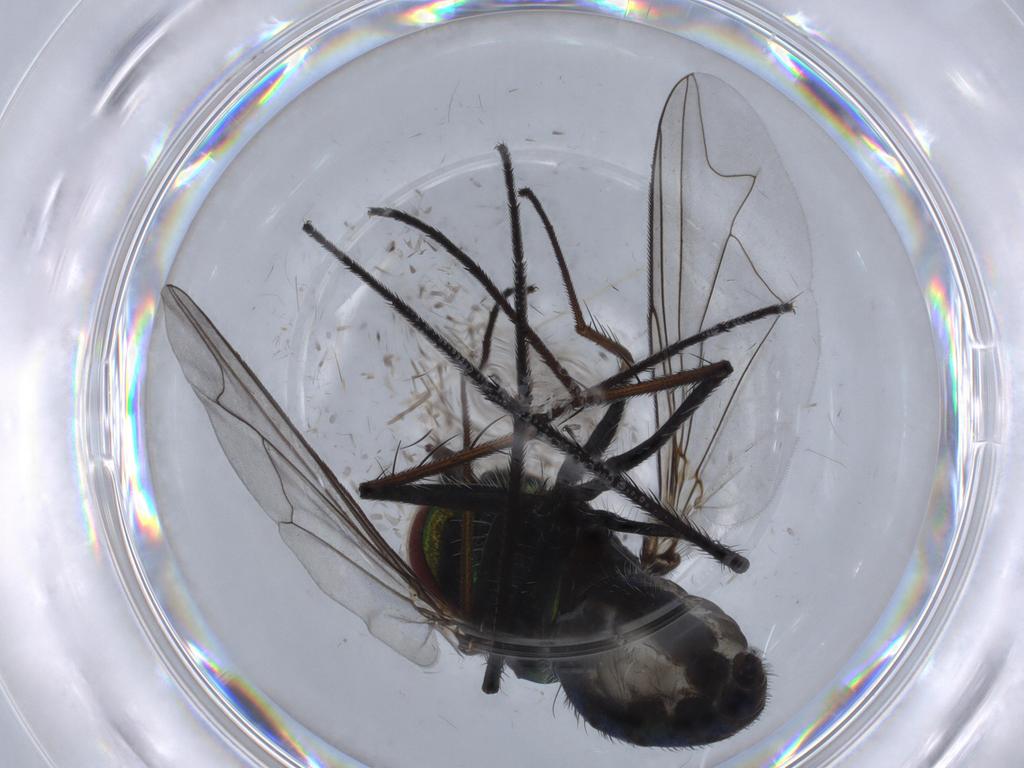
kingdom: Animalia
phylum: Arthropoda
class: Insecta
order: Diptera
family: Dolichopodidae
